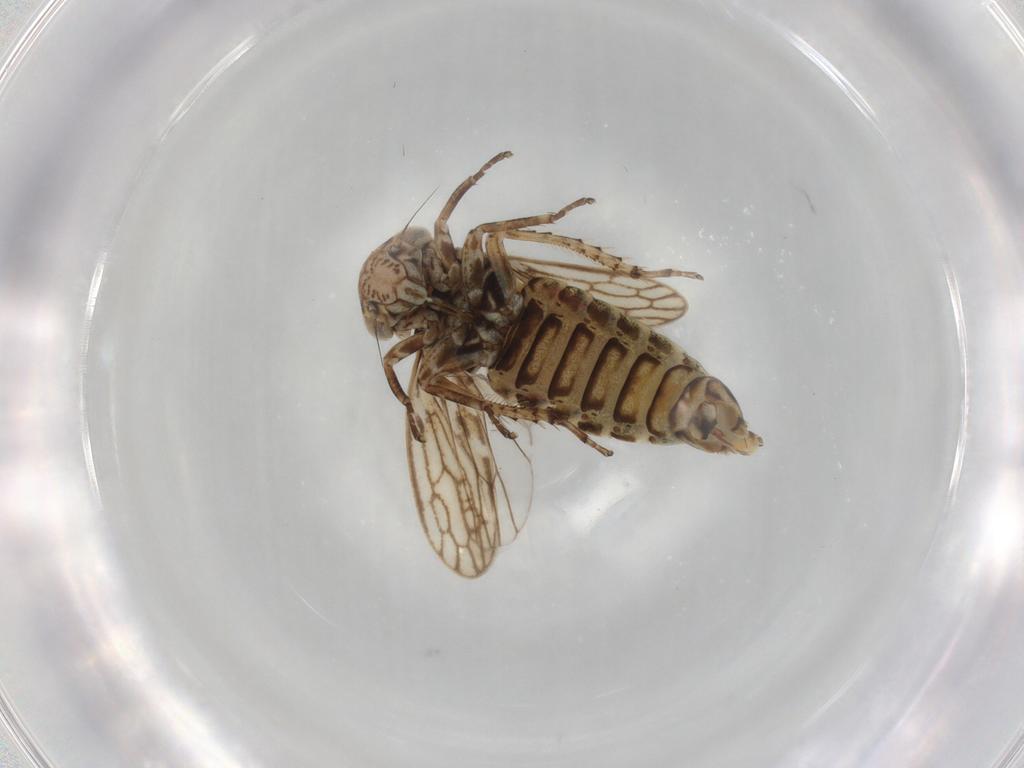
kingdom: Animalia
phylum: Arthropoda
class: Insecta
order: Hemiptera
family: Cicadellidae
